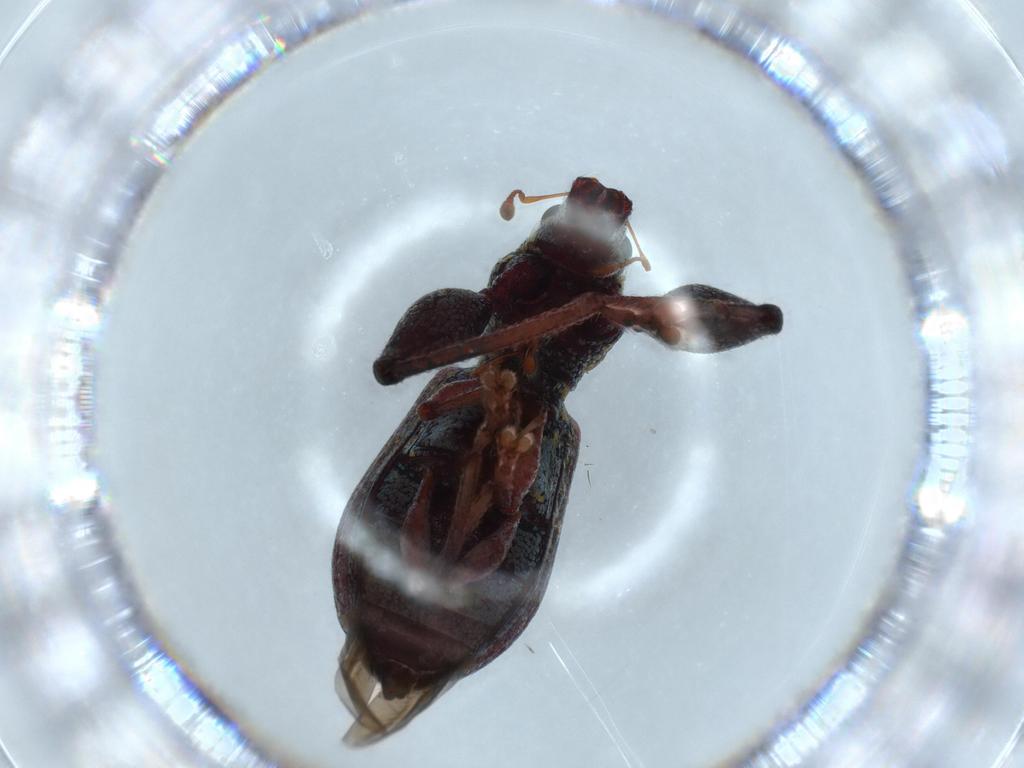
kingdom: Animalia
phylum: Arthropoda
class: Insecta
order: Coleoptera
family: Curculionidae
